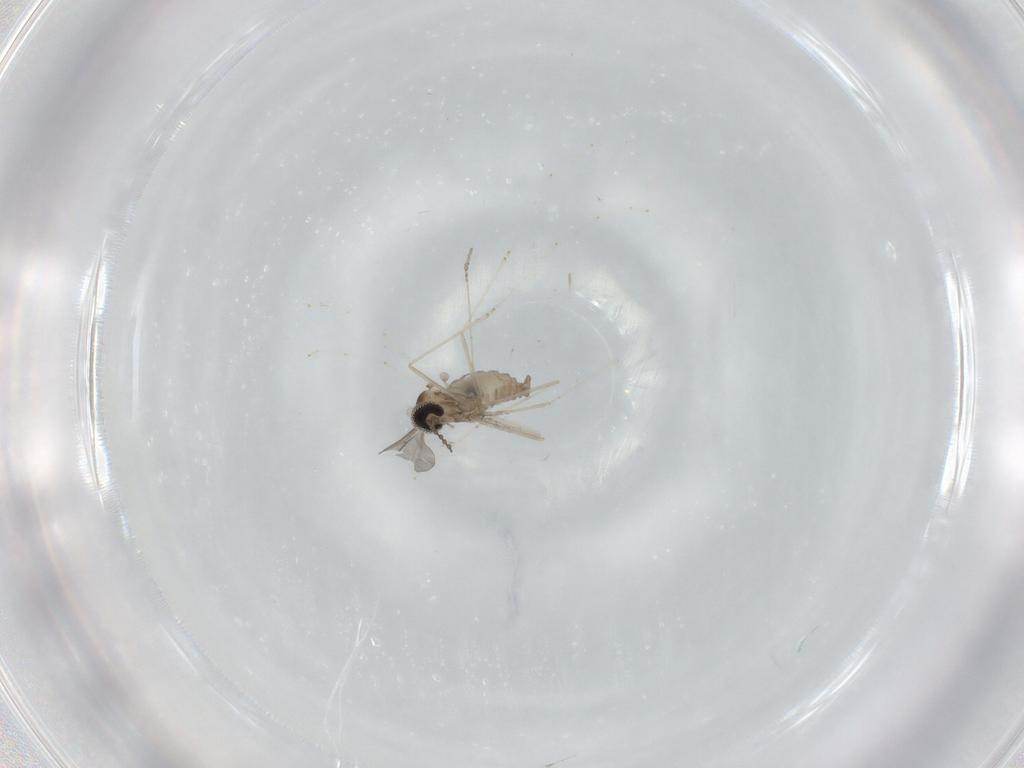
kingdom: Animalia
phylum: Arthropoda
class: Insecta
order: Diptera
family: Cecidomyiidae
